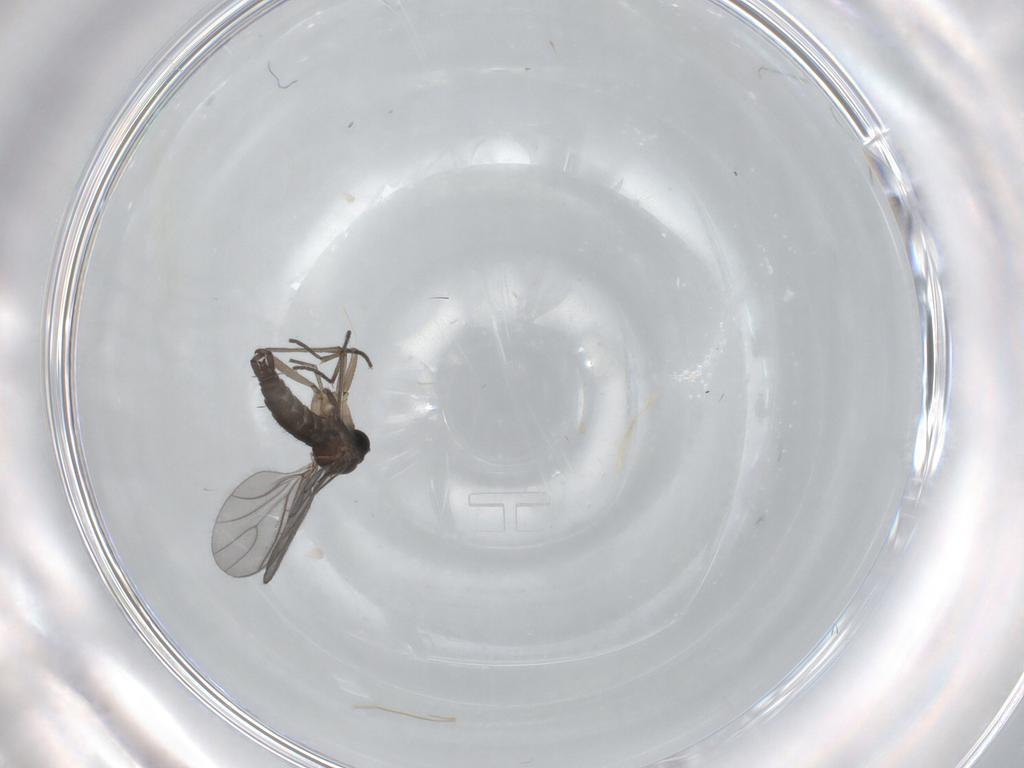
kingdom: Animalia
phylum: Arthropoda
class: Insecta
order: Diptera
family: Sciaridae
